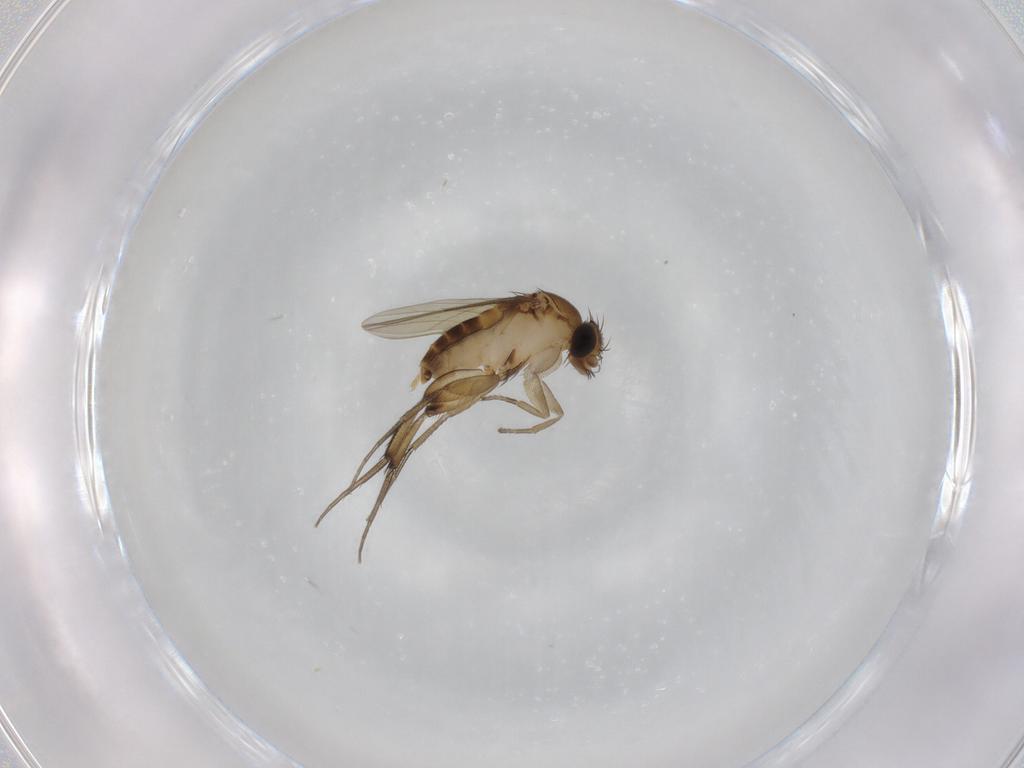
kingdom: Animalia
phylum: Arthropoda
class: Insecta
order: Diptera
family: Phoridae
